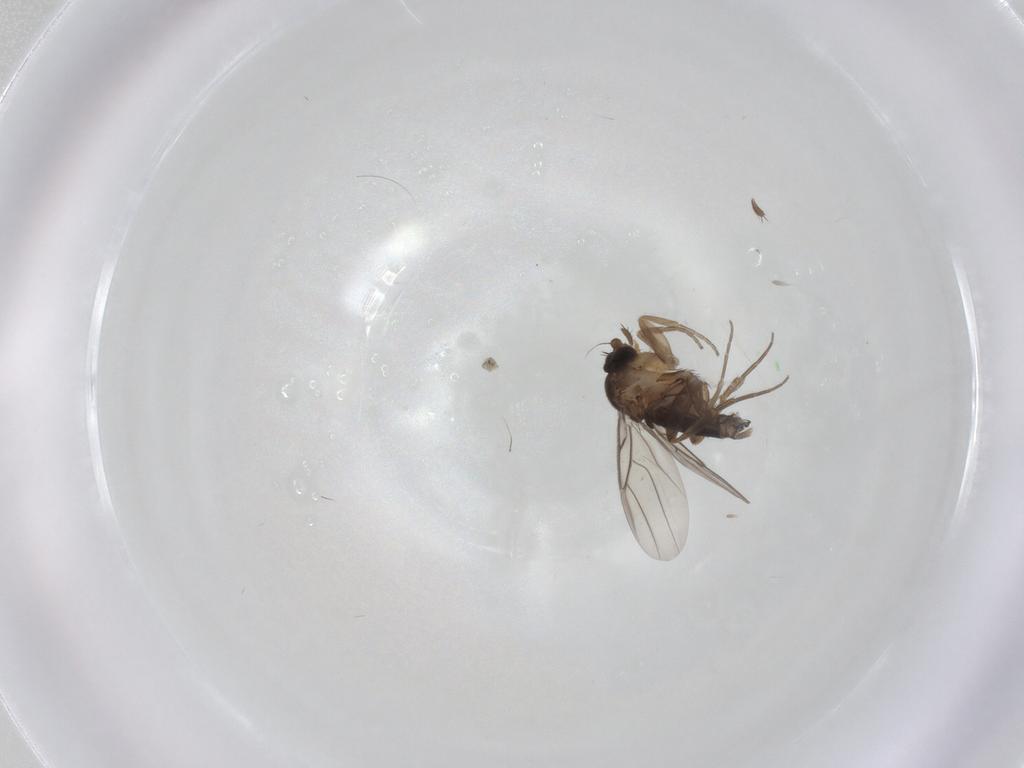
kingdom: Animalia
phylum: Arthropoda
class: Insecta
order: Diptera
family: Phoridae
